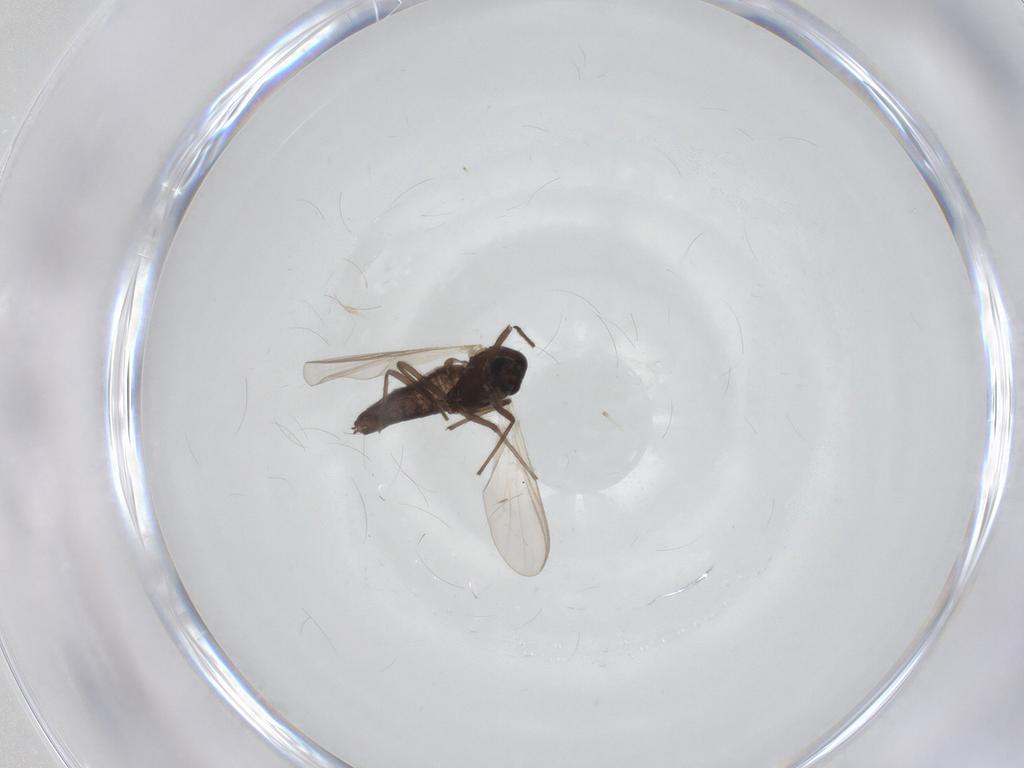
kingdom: Animalia
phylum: Arthropoda
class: Insecta
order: Diptera
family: Chironomidae
